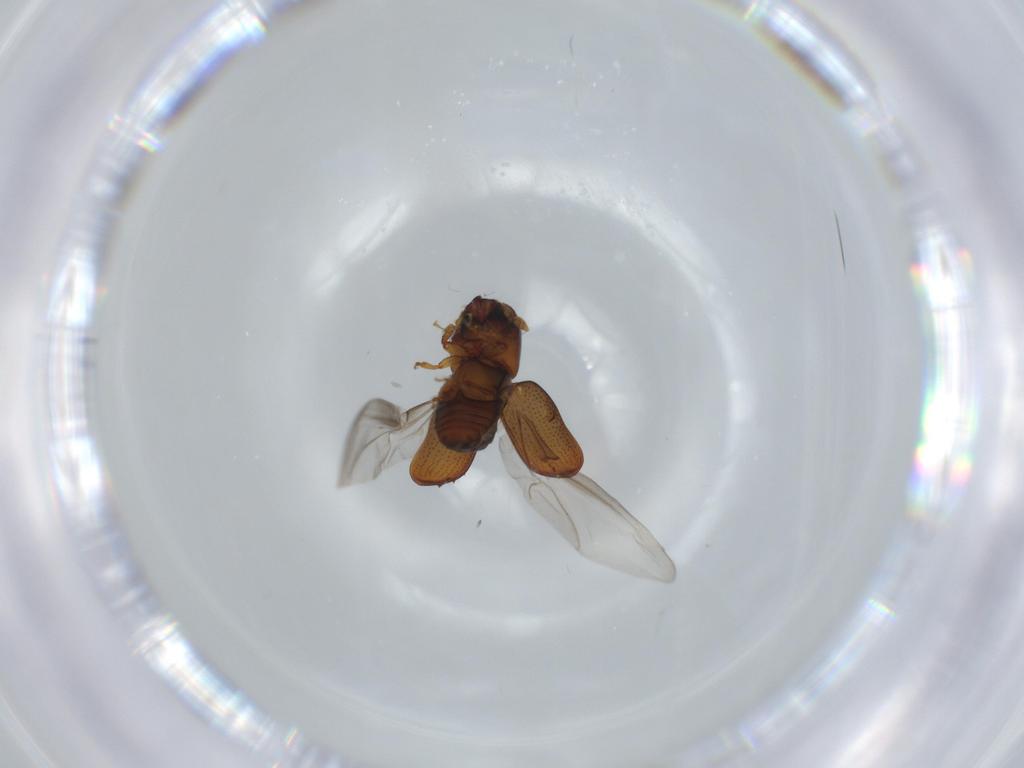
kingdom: Animalia
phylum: Arthropoda
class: Insecta
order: Coleoptera
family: Curculionidae
